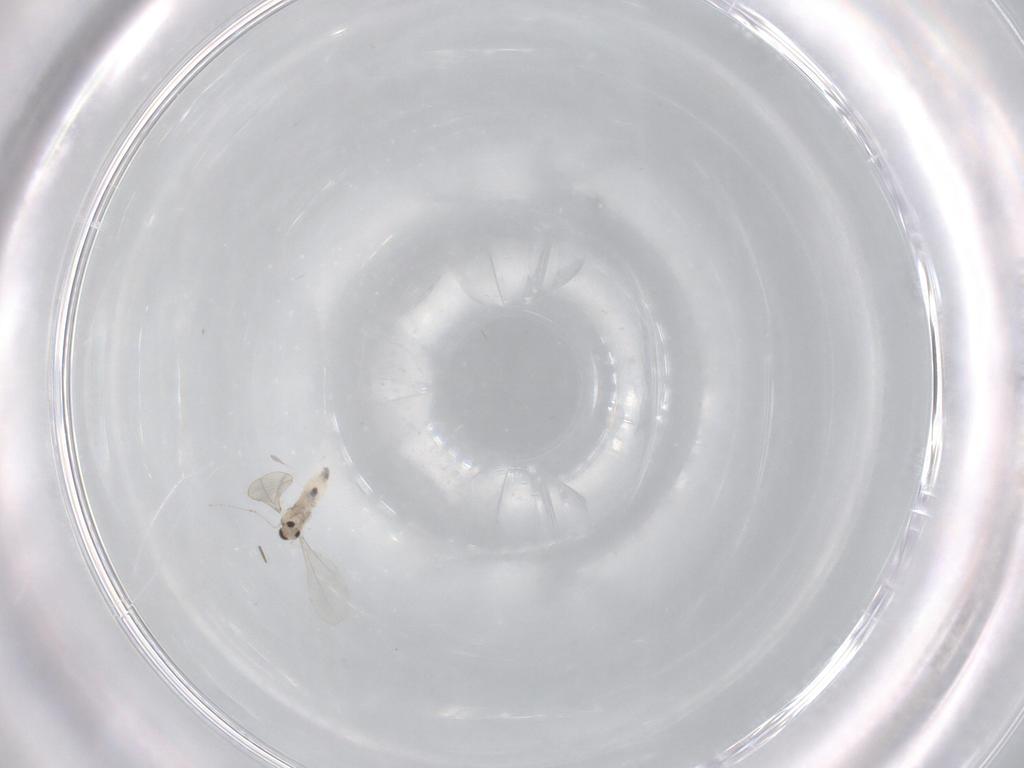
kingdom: Animalia
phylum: Arthropoda
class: Insecta
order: Diptera
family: Cecidomyiidae
